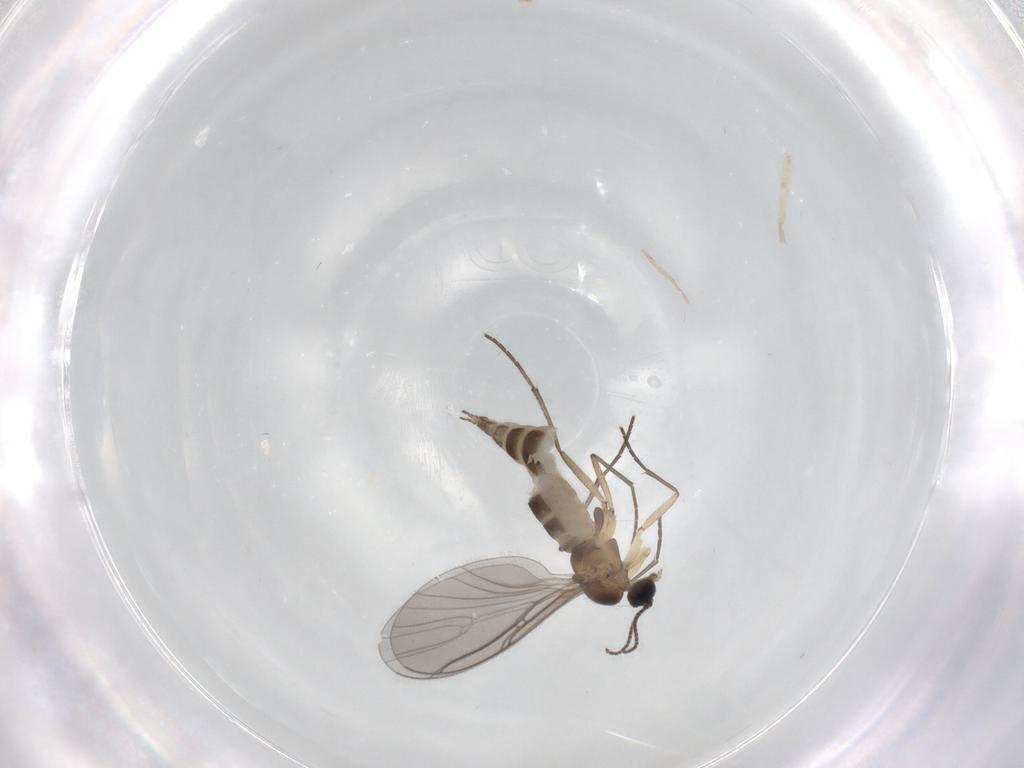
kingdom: Animalia
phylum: Arthropoda
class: Insecta
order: Diptera
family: Sciaridae
